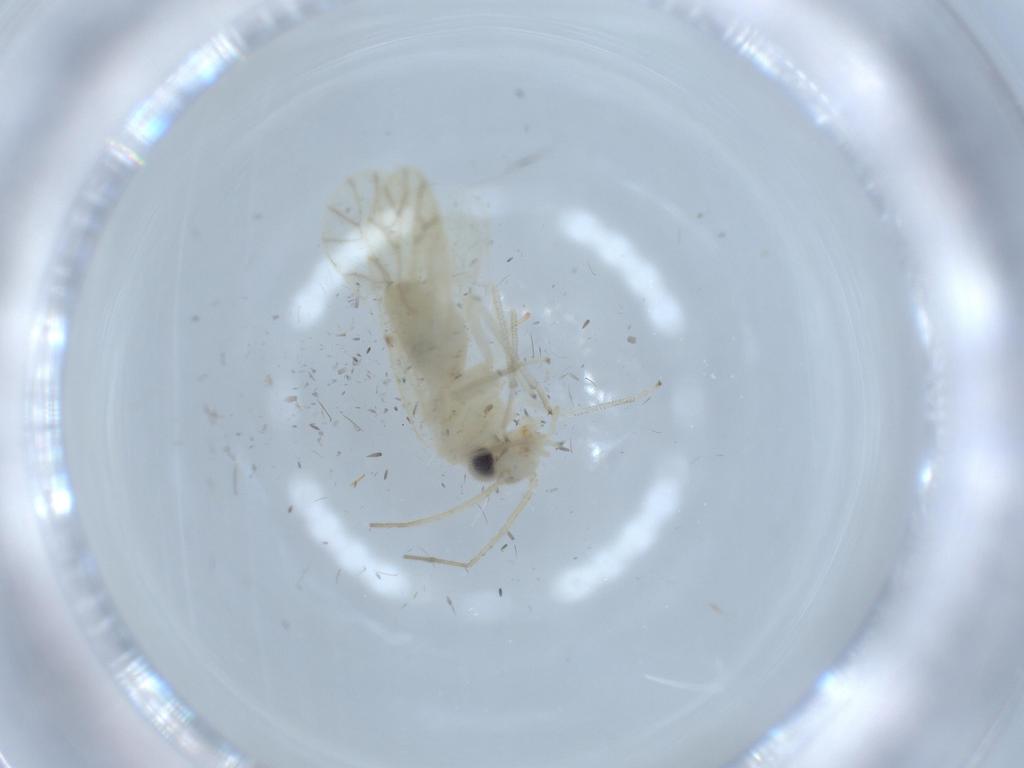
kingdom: Animalia
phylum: Arthropoda
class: Insecta
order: Psocodea
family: Caeciliusidae
